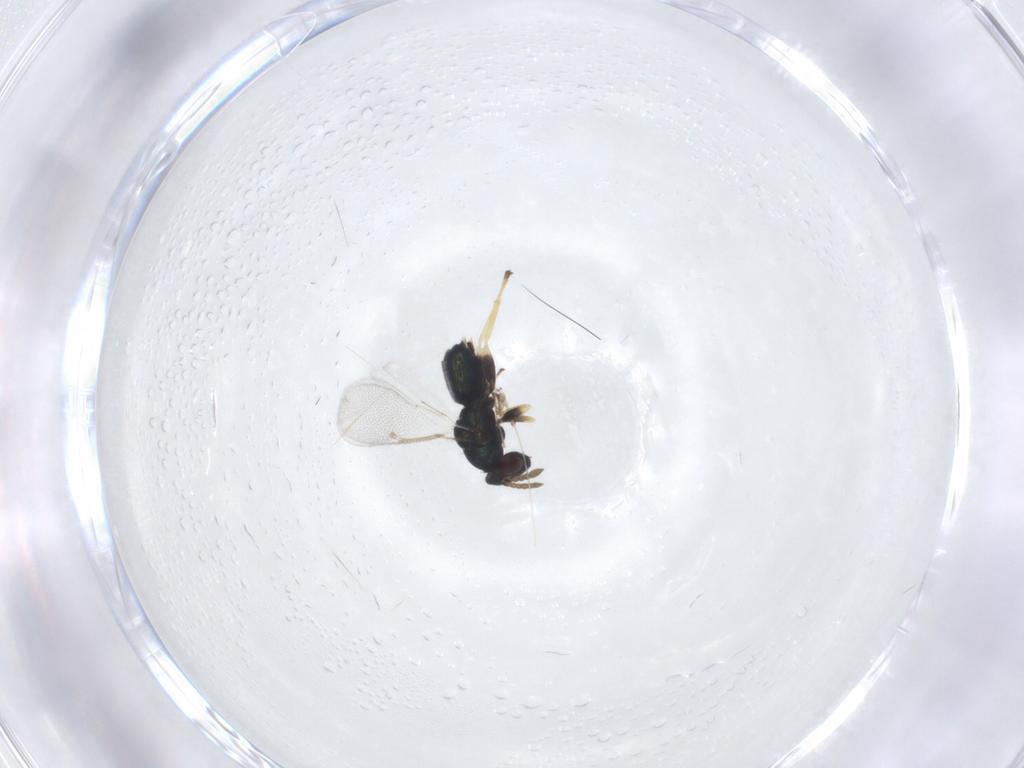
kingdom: Animalia
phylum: Arthropoda
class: Insecta
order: Hymenoptera
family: Eulophidae
